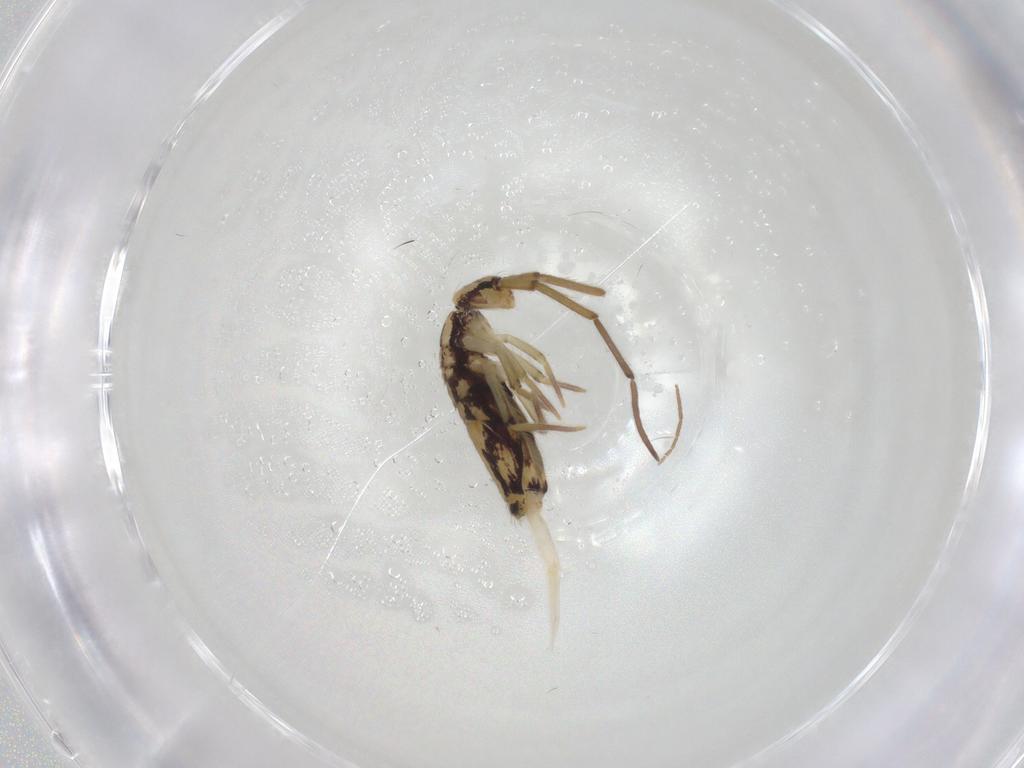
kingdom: Animalia
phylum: Arthropoda
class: Collembola
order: Entomobryomorpha
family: Entomobryidae
